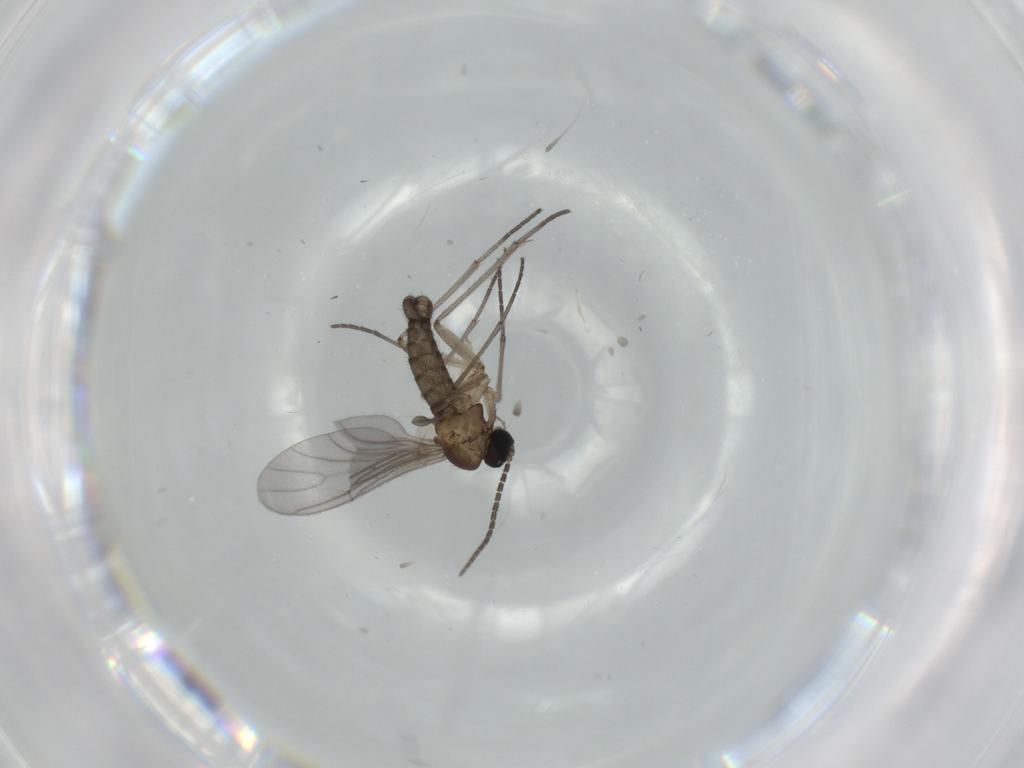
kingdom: Animalia
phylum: Arthropoda
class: Insecta
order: Diptera
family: Sciaridae
